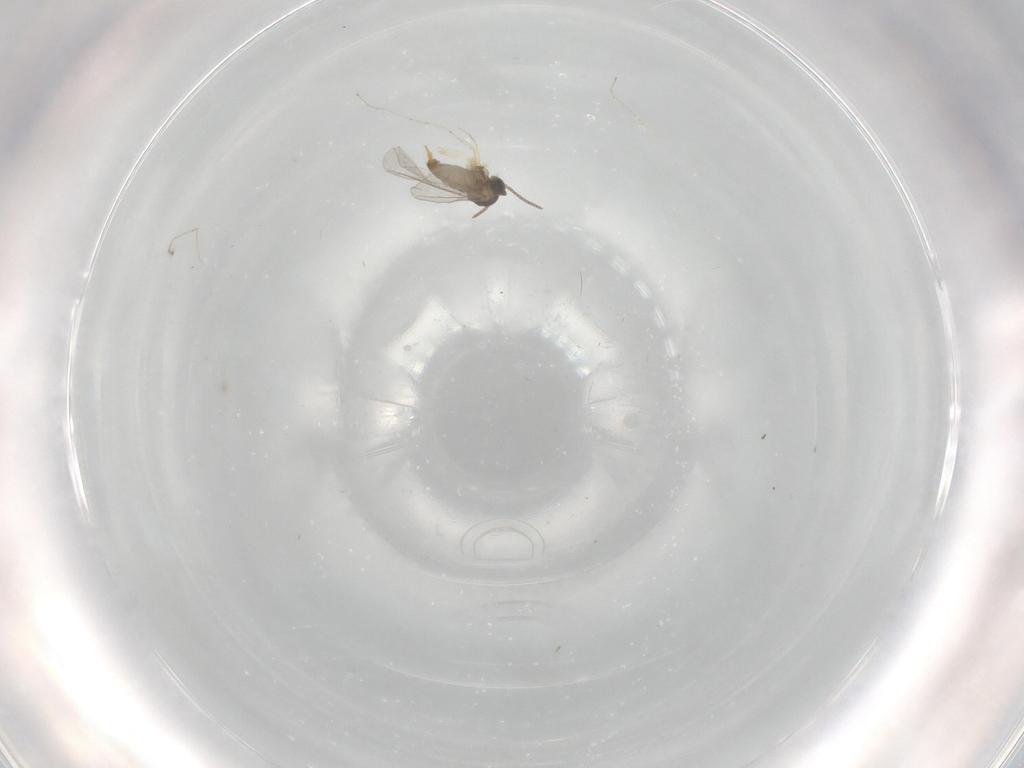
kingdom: Animalia
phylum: Arthropoda
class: Insecta
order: Diptera
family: Cecidomyiidae
